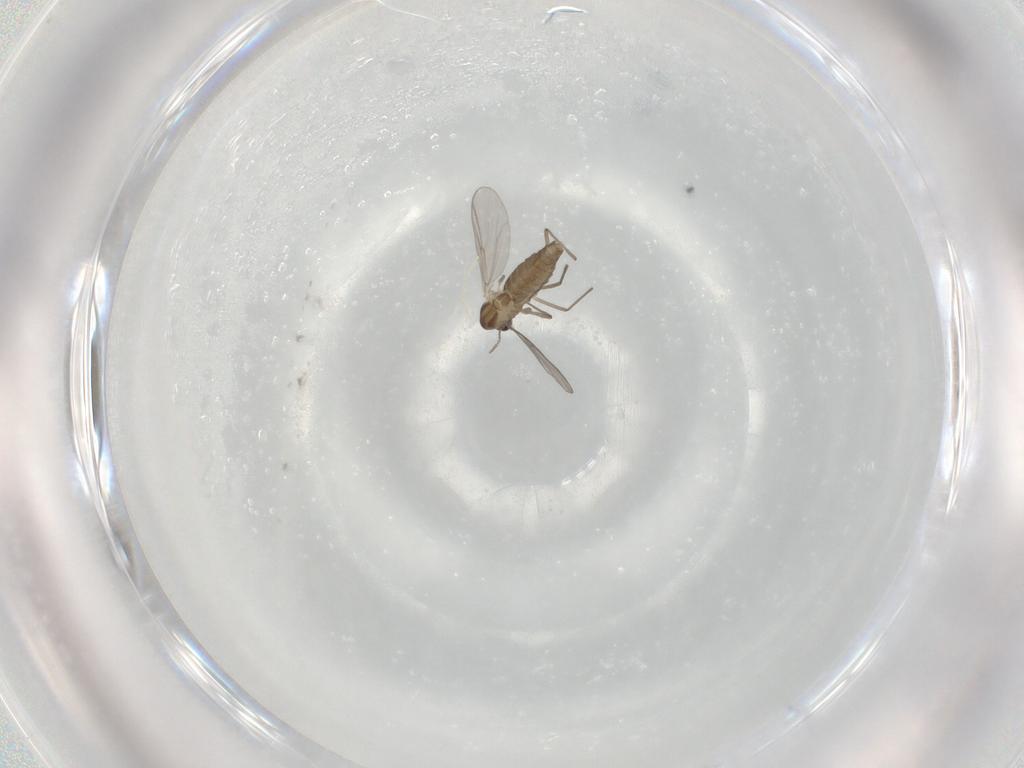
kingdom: Animalia
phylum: Arthropoda
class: Insecta
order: Diptera
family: Chironomidae
